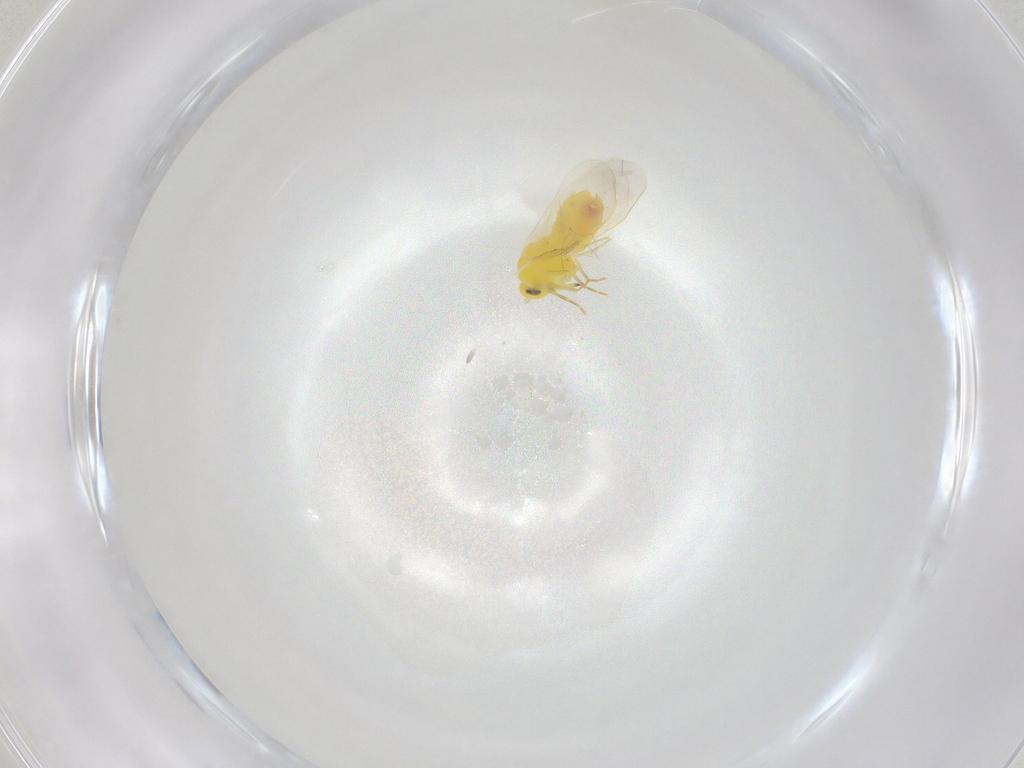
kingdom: Animalia
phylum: Arthropoda
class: Insecta
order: Hemiptera
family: Aleyrodidae
